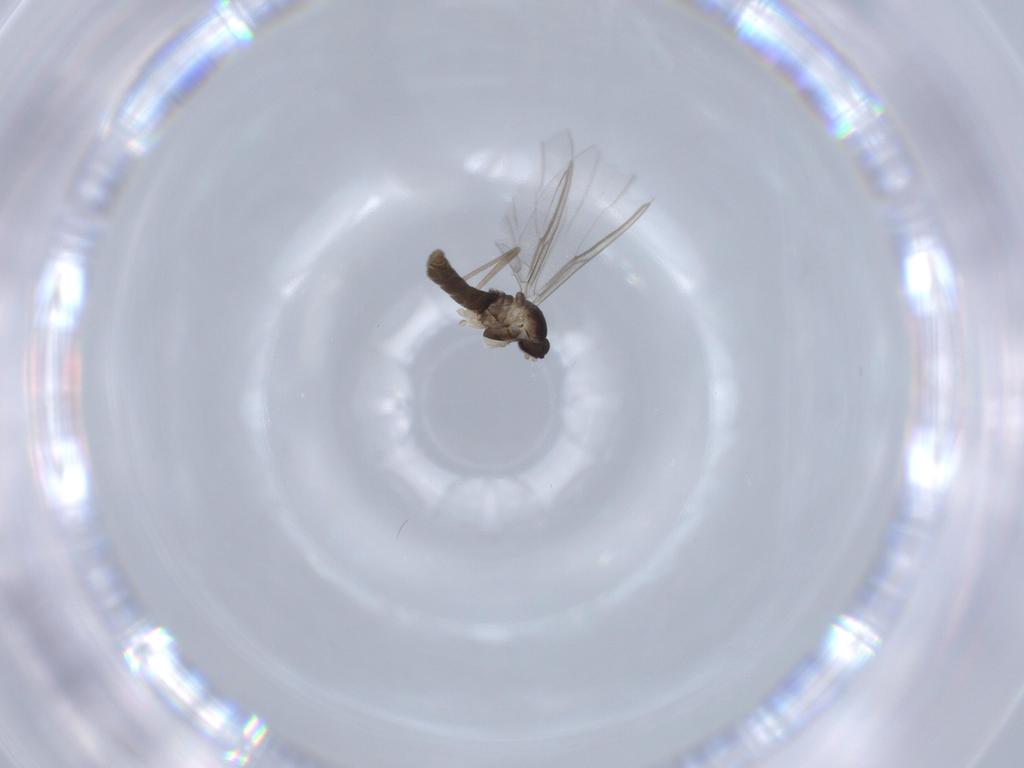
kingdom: Animalia
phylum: Arthropoda
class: Insecta
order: Diptera
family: Cecidomyiidae
